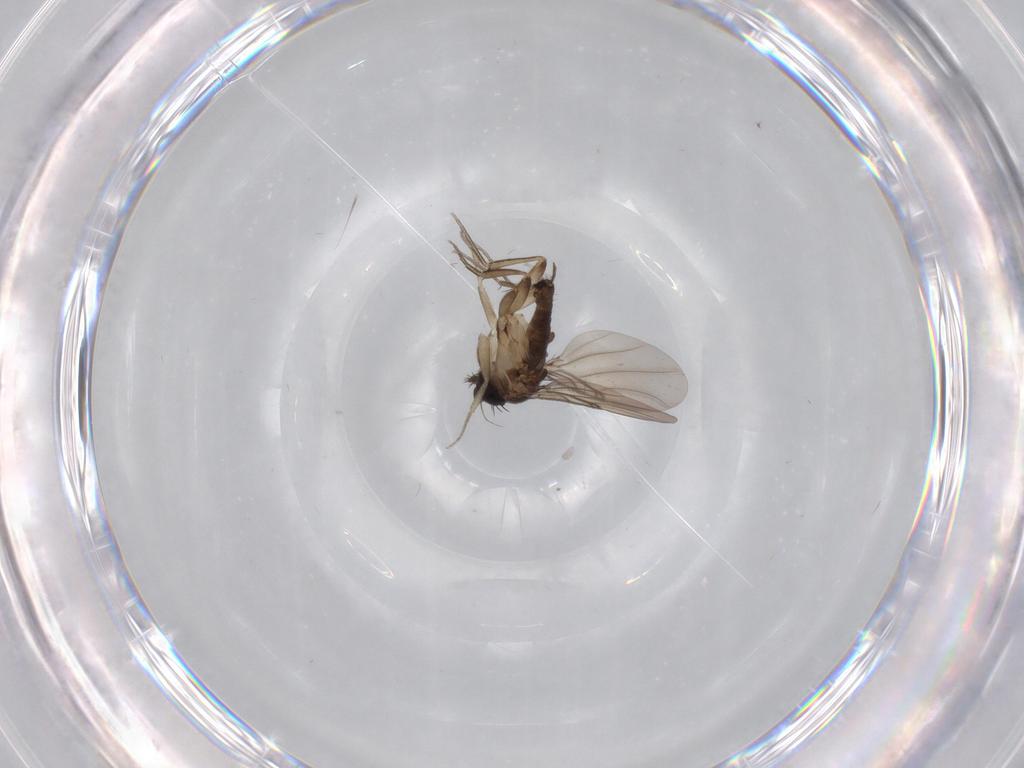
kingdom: Animalia
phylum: Arthropoda
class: Insecta
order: Diptera
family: Phoridae
